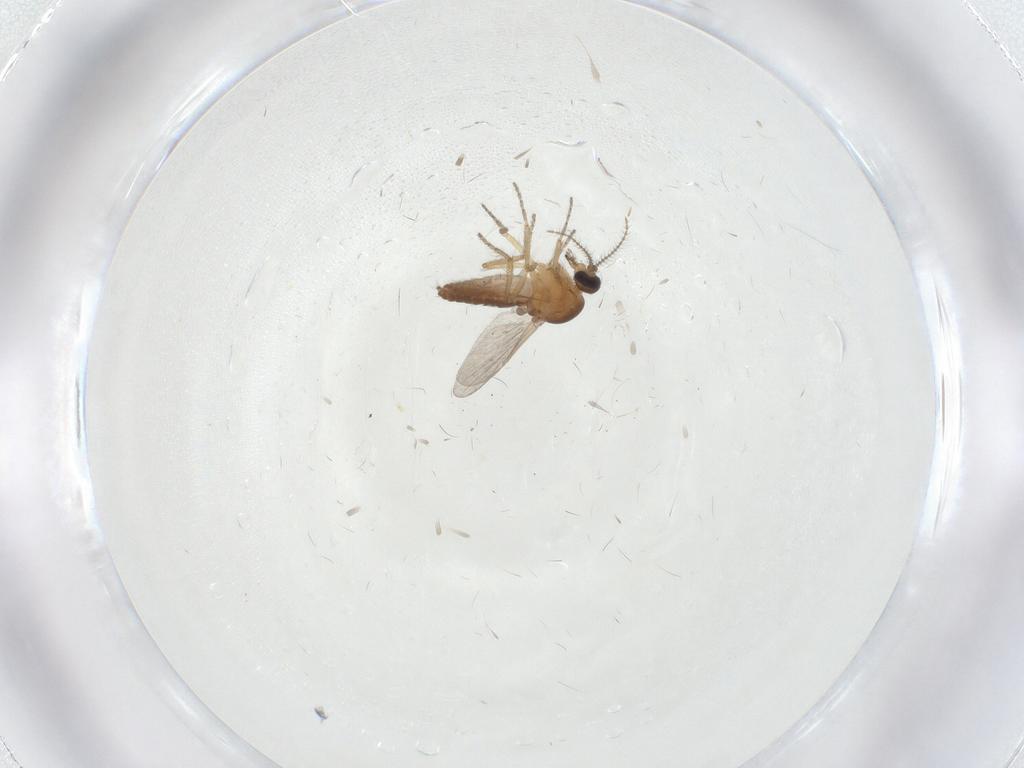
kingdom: Animalia
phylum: Arthropoda
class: Insecta
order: Diptera
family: Ceratopogonidae
